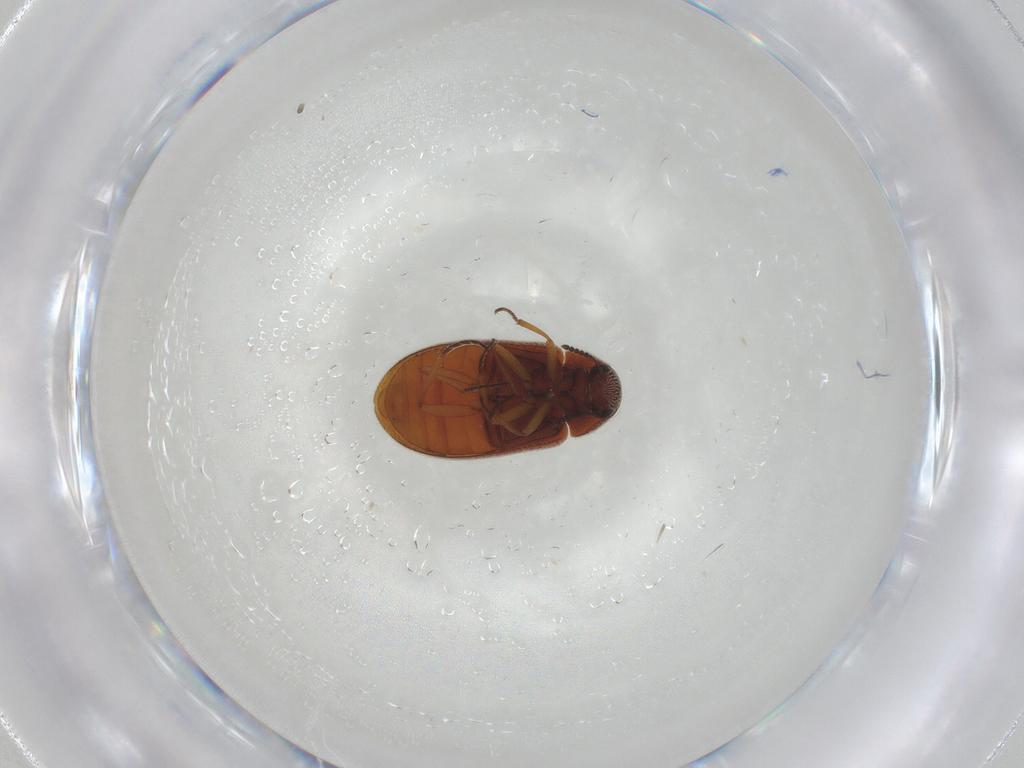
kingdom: Animalia
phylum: Arthropoda
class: Insecta
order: Coleoptera
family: Rhadalidae
